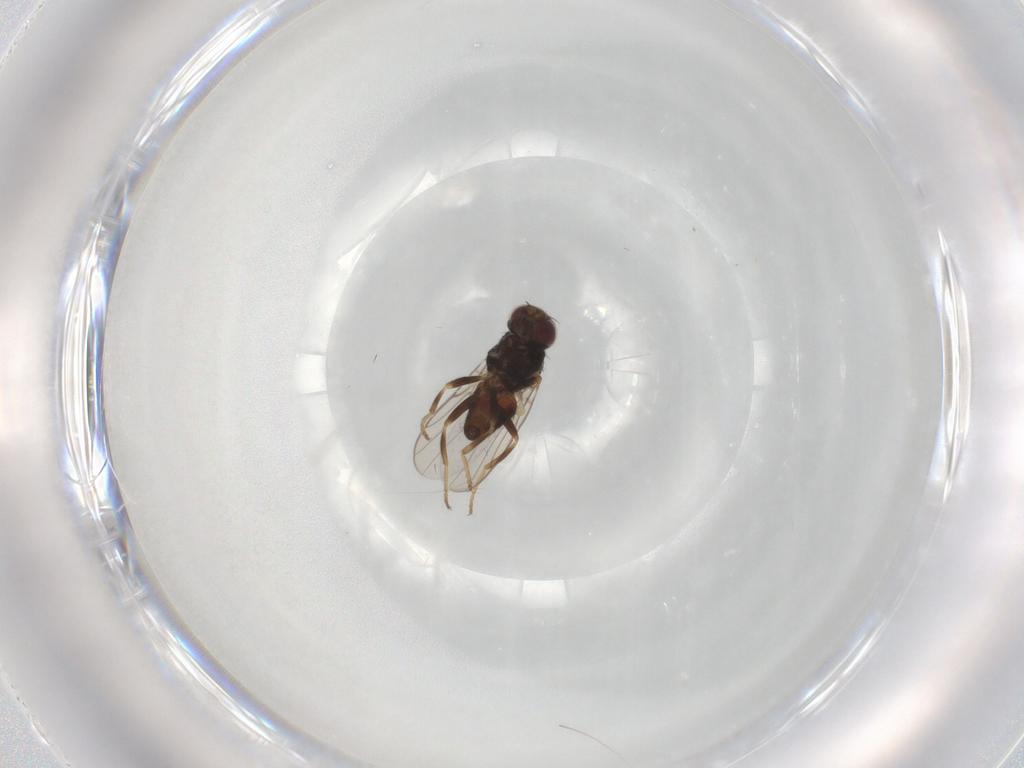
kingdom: Animalia
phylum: Arthropoda
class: Insecta
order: Diptera
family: Chloropidae
